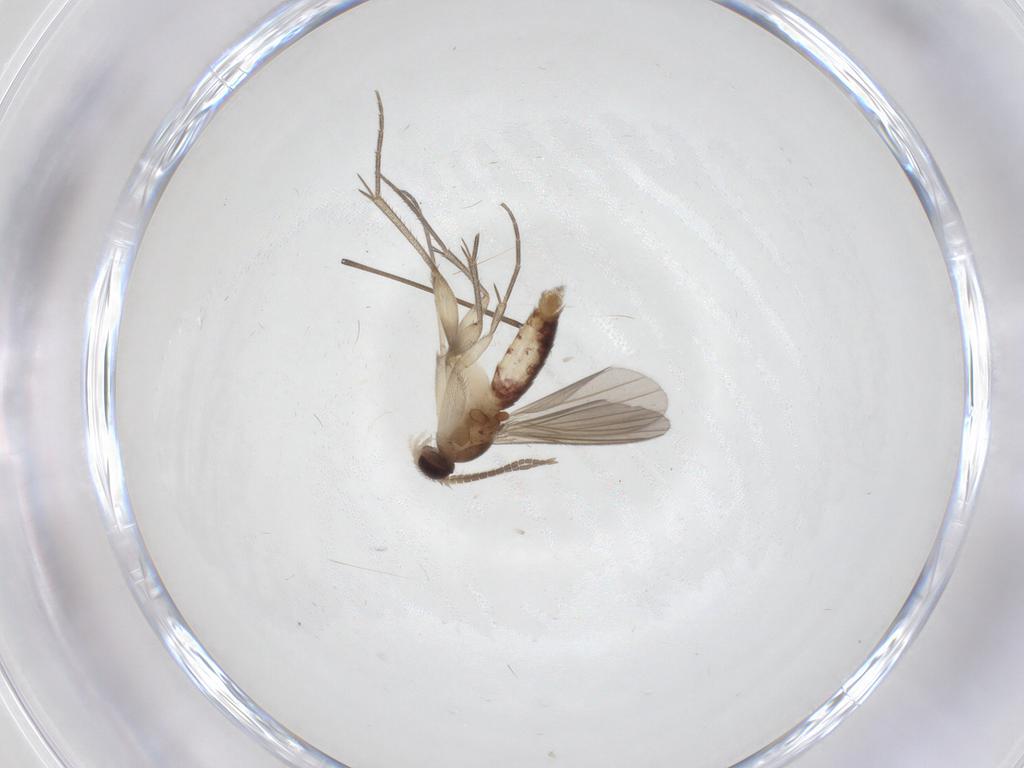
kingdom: Animalia
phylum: Arthropoda
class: Insecta
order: Diptera
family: Mycetophilidae
